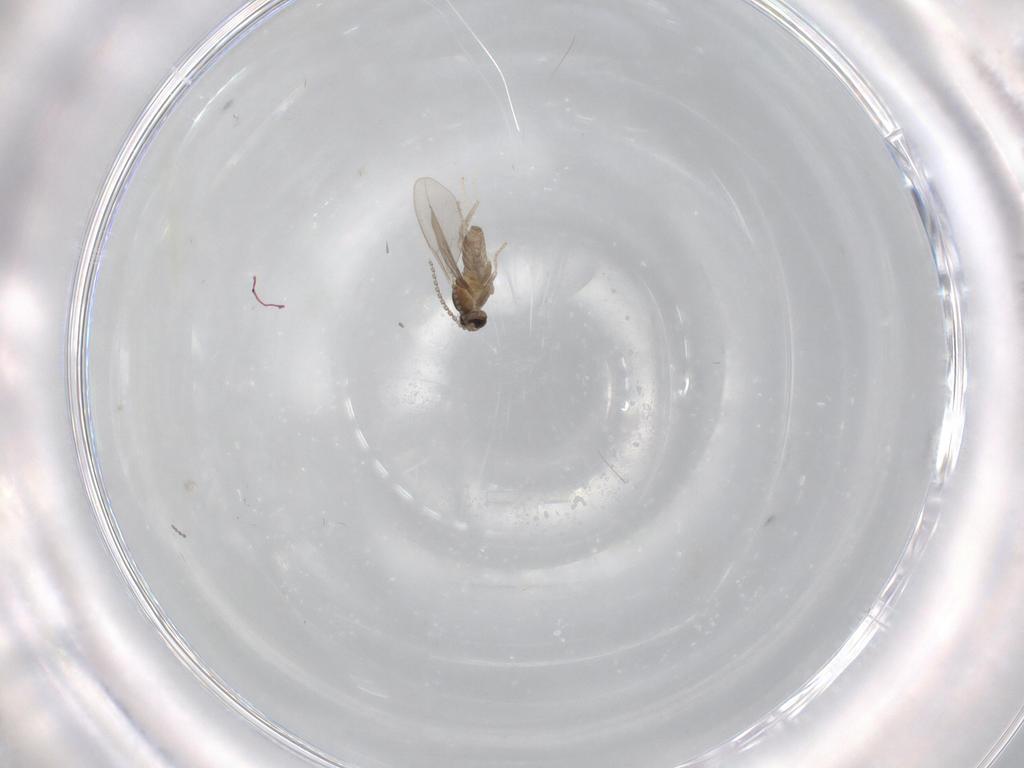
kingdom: Animalia
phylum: Arthropoda
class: Insecta
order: Diptera
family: Cecidomyiidae
